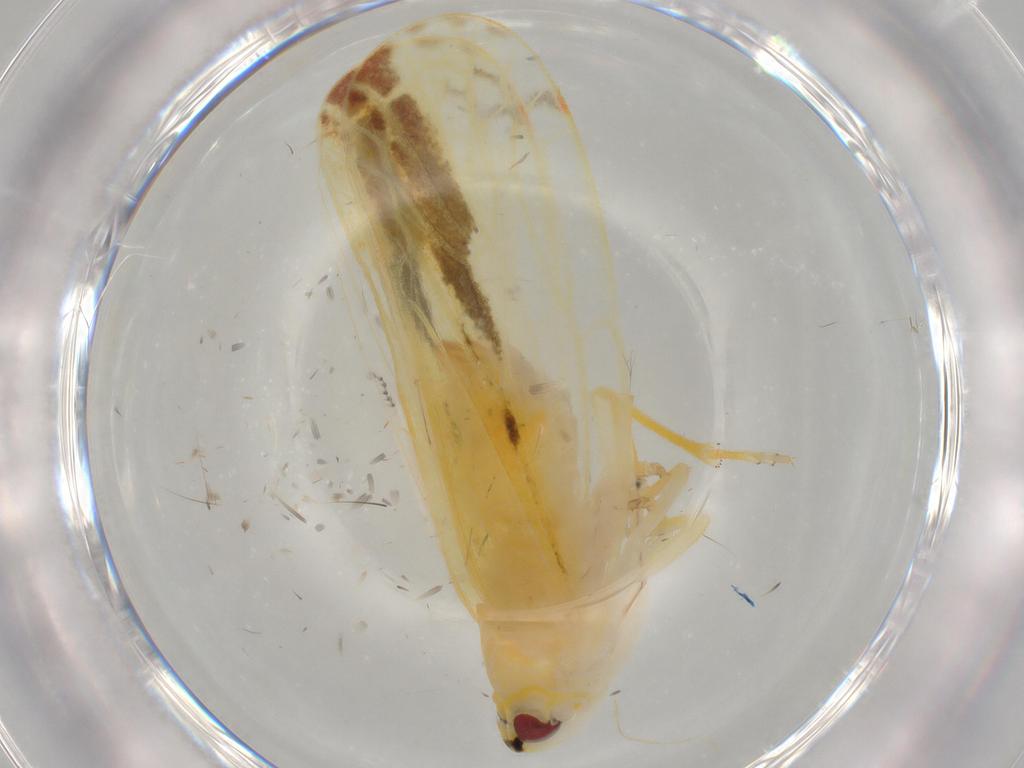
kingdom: Animalia
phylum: Arthropoda
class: Insecta
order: Hemiptera
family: Derbidae
